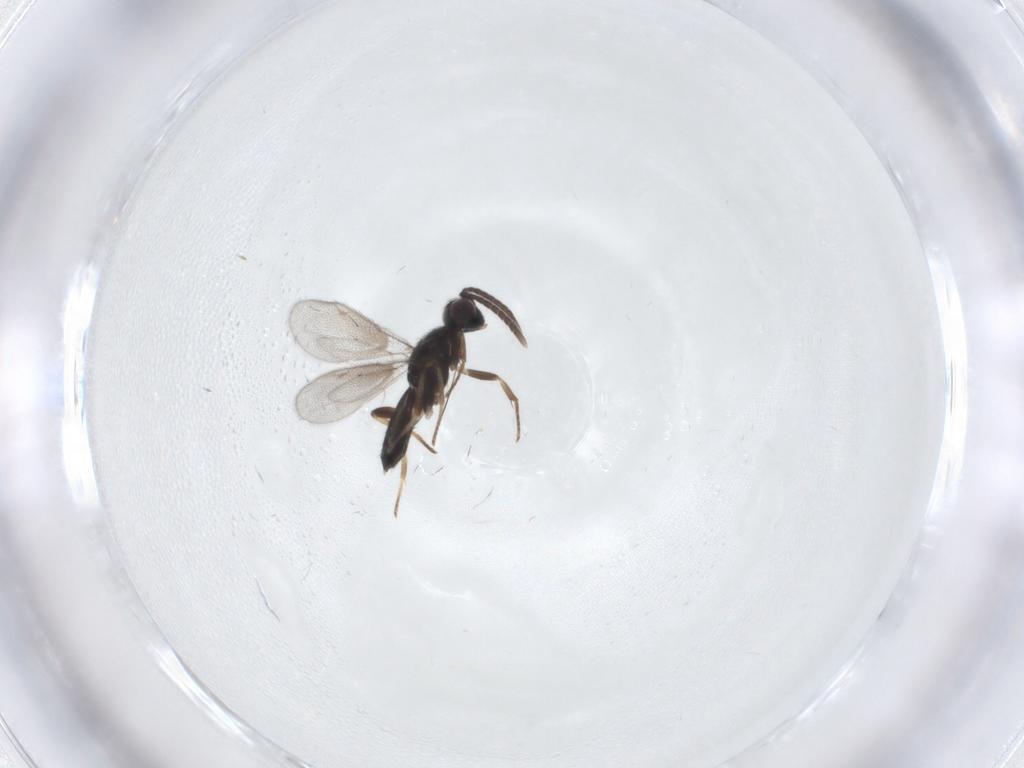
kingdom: Animalia
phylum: Arthropoda
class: Insecta
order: Hymenoptera
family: Eupelmidae
